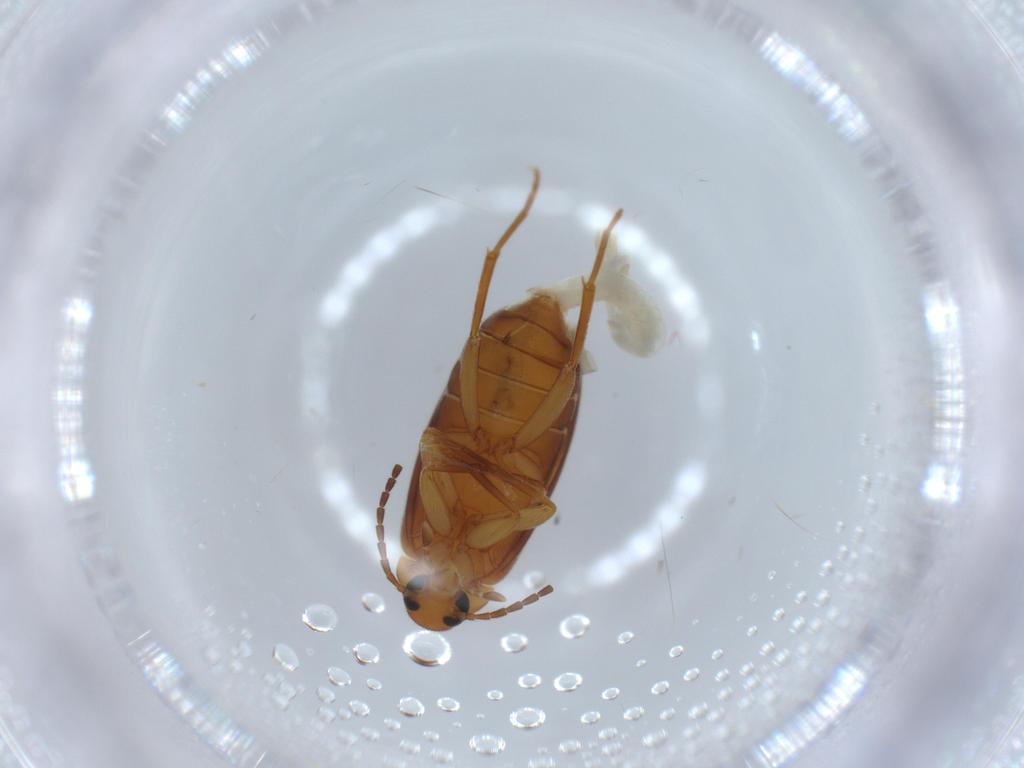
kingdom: Animalia
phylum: Arthropoda
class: Insecta
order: Coleoptera
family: Scraptiidae
